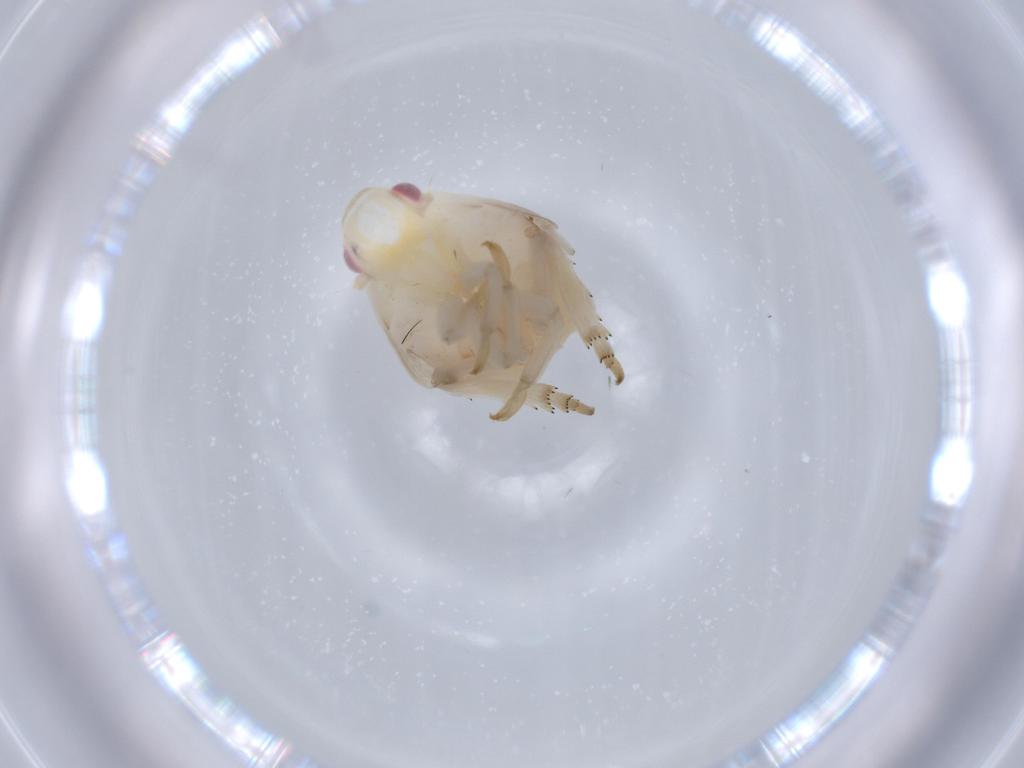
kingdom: Animalia
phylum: Arthropoda
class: Insecta
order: Hemiptera
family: Flatidae
